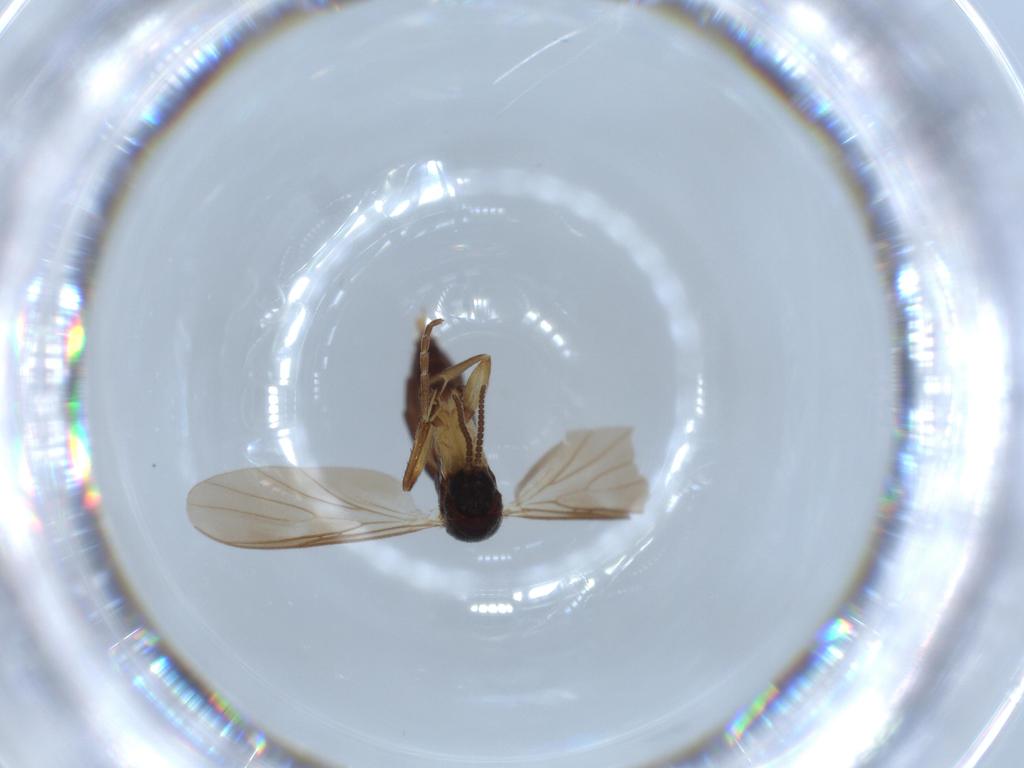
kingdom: Animalia
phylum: Arthropoda
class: Insecta
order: Diptera
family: Mycetophilidae
